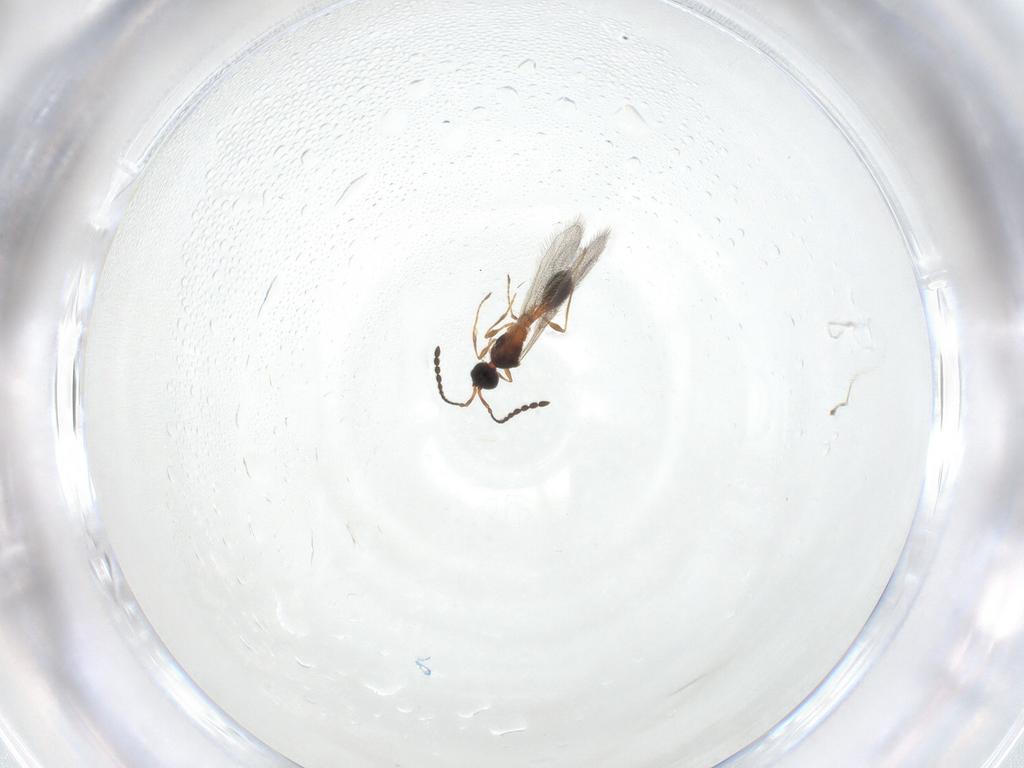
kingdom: Animalia
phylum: Arthropoda
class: Insecta
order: Hymenoptera
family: Diapriidae
